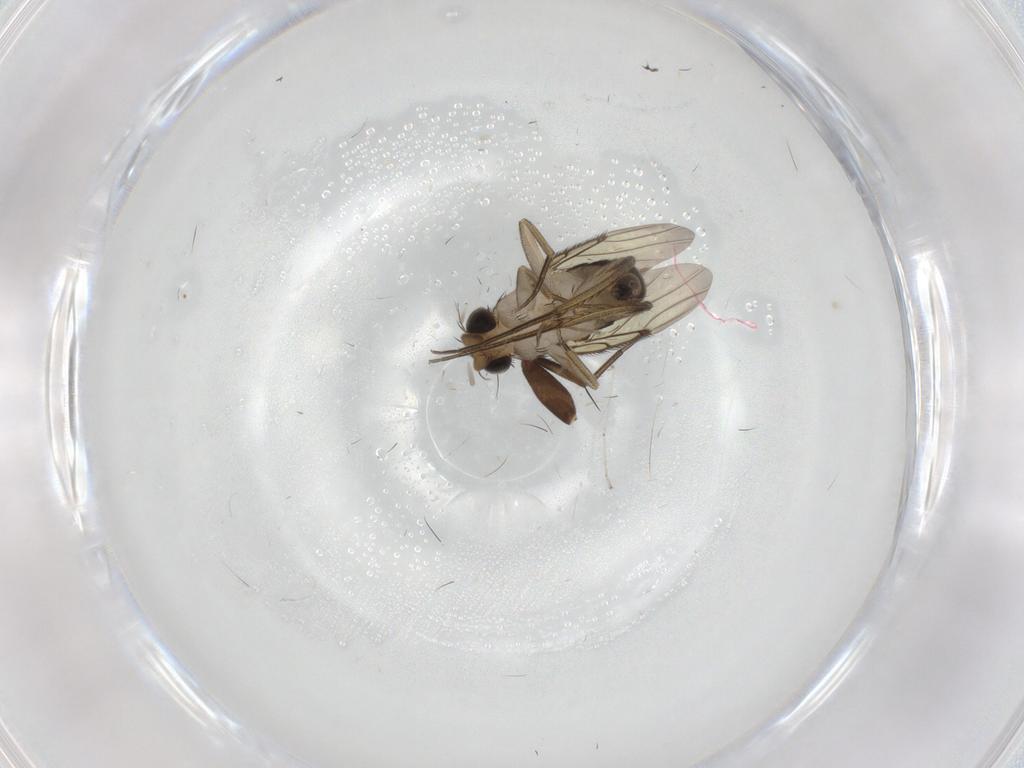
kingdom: Animalia
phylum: Arthropoda
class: Insecta
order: Diptera
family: Phoridae
